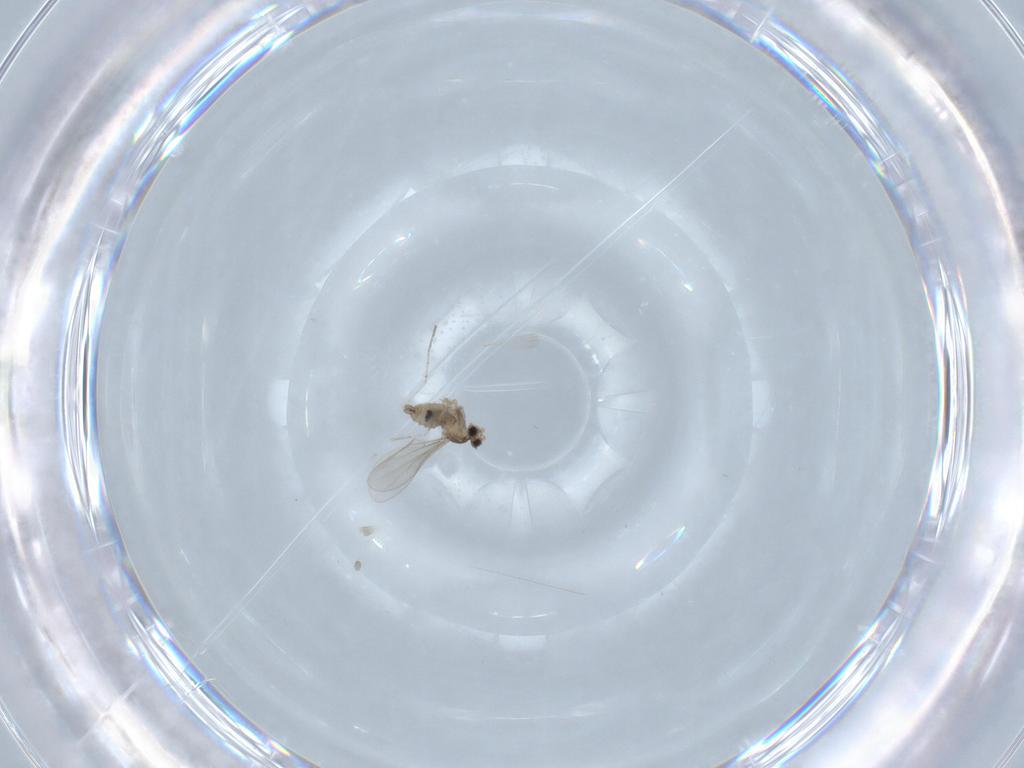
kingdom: Animalia
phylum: Arthropoda
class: Insecta
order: Diptera
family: Cecidomyiidae
